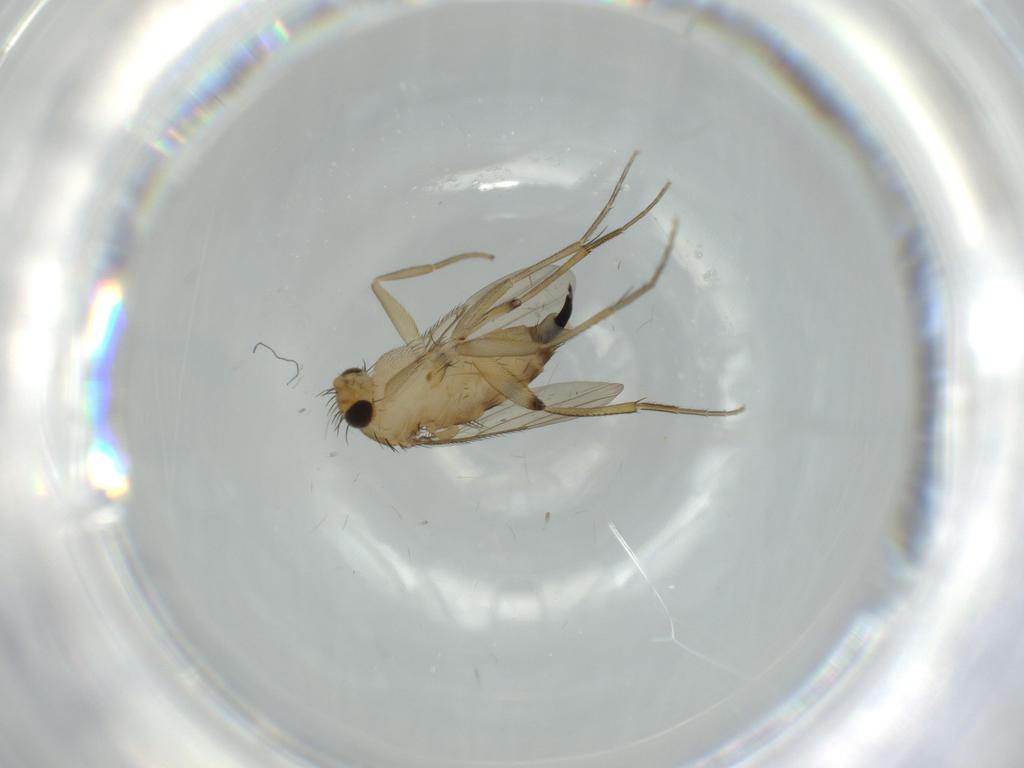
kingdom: Animalia
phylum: Arthropoda
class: Insecta
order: Diptera
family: Phoridae
